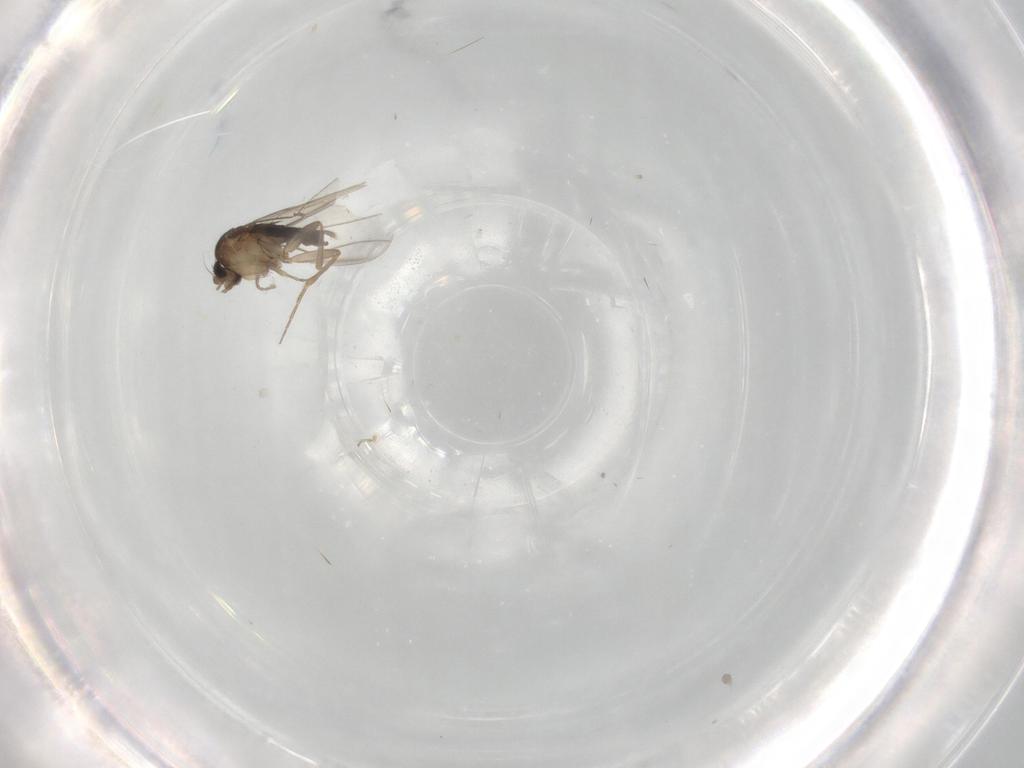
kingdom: Animalia
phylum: Arthropoda
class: Insecta
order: Diptera
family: Phoridae
